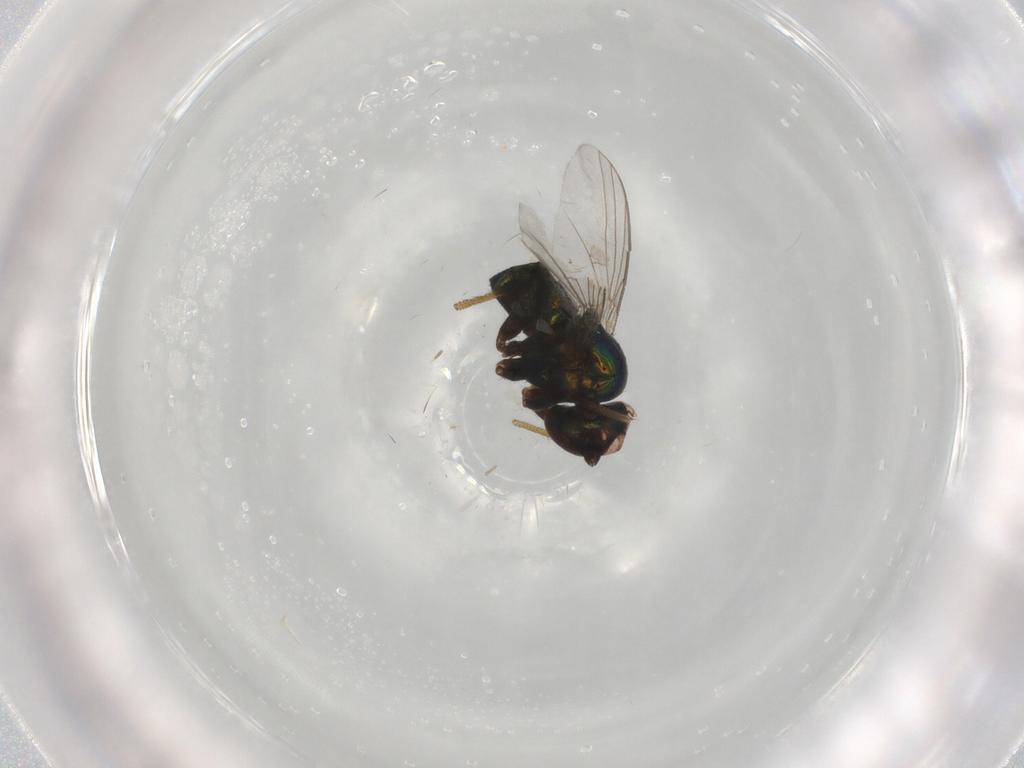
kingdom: Animalia
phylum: Arthropoda
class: Insecta
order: Diptera
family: Dolichopodidae
